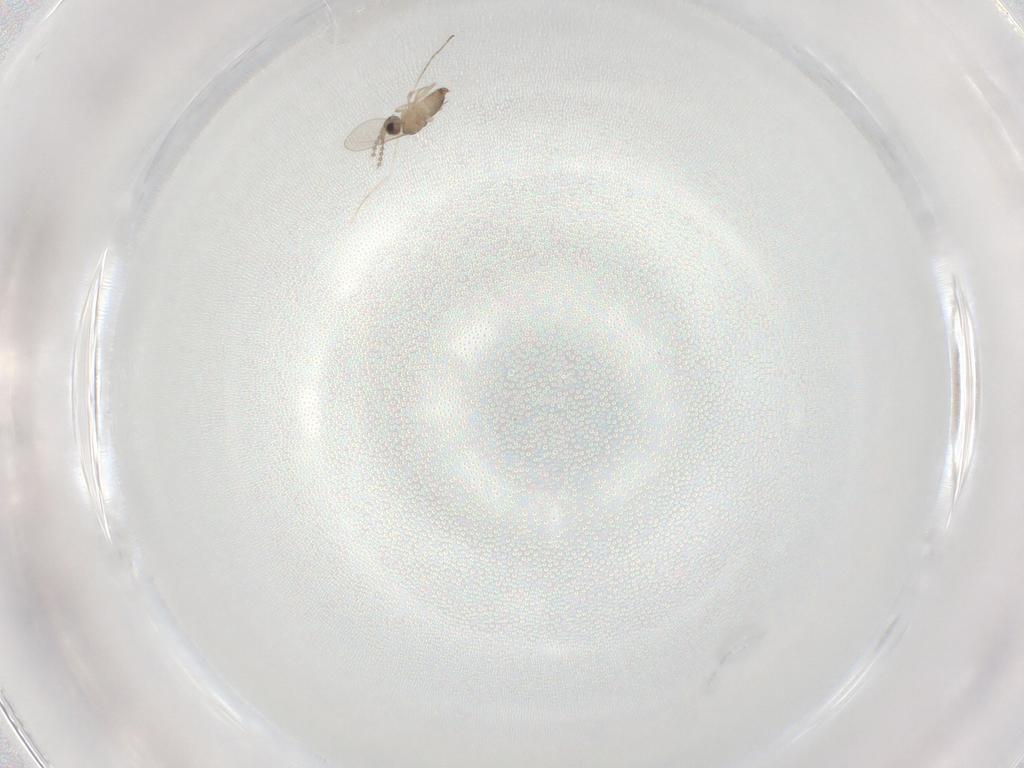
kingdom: Animalia
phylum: Arthropoda
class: Insecta
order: Diptera
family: Cecidomyiidae
